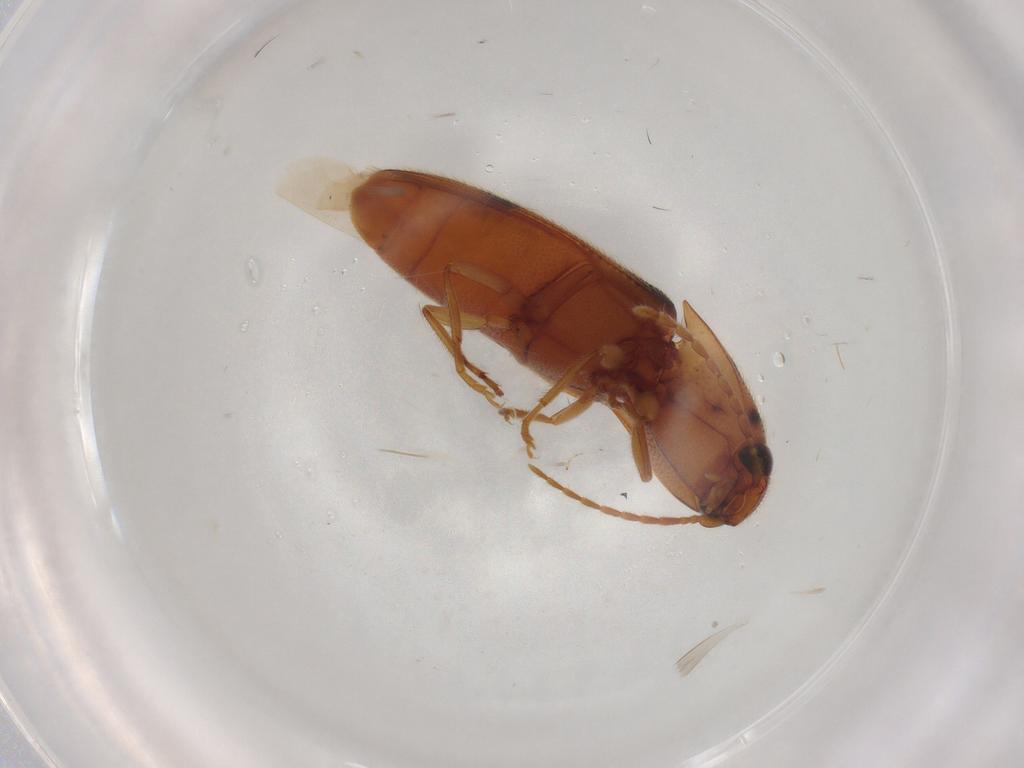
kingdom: Animalia
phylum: Arthropoda
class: Insecta
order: Coleoptera
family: Elateridae
